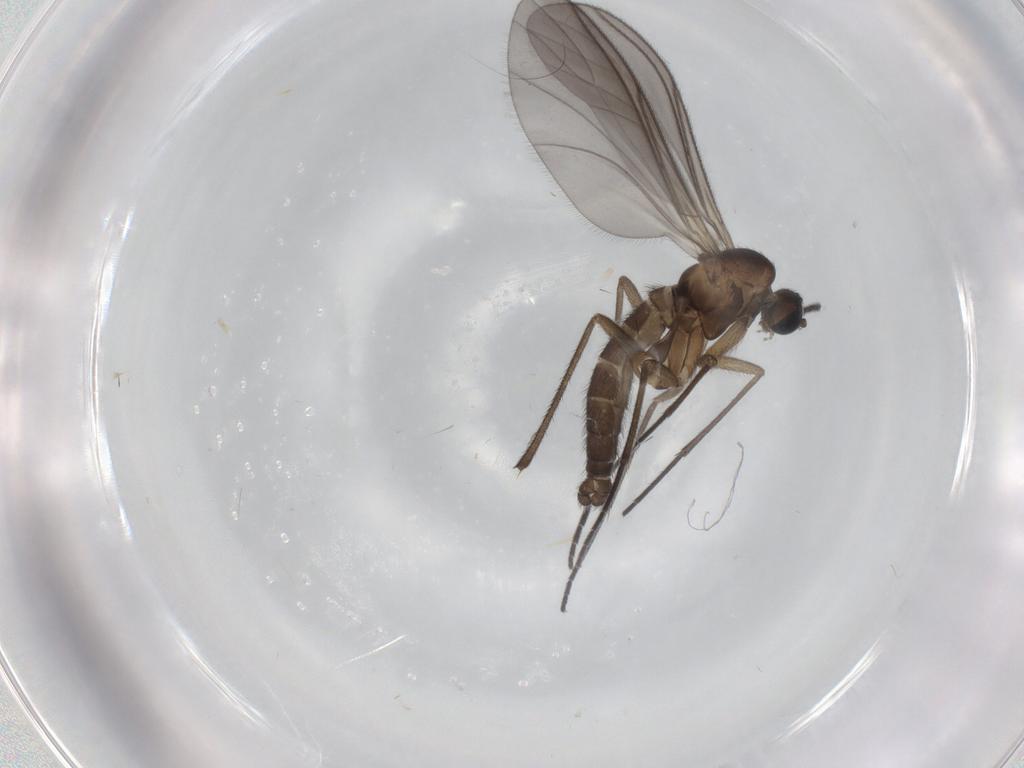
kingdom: Animalia
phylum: Arthropoda
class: Insecta
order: Diptera
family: Sciaridae
